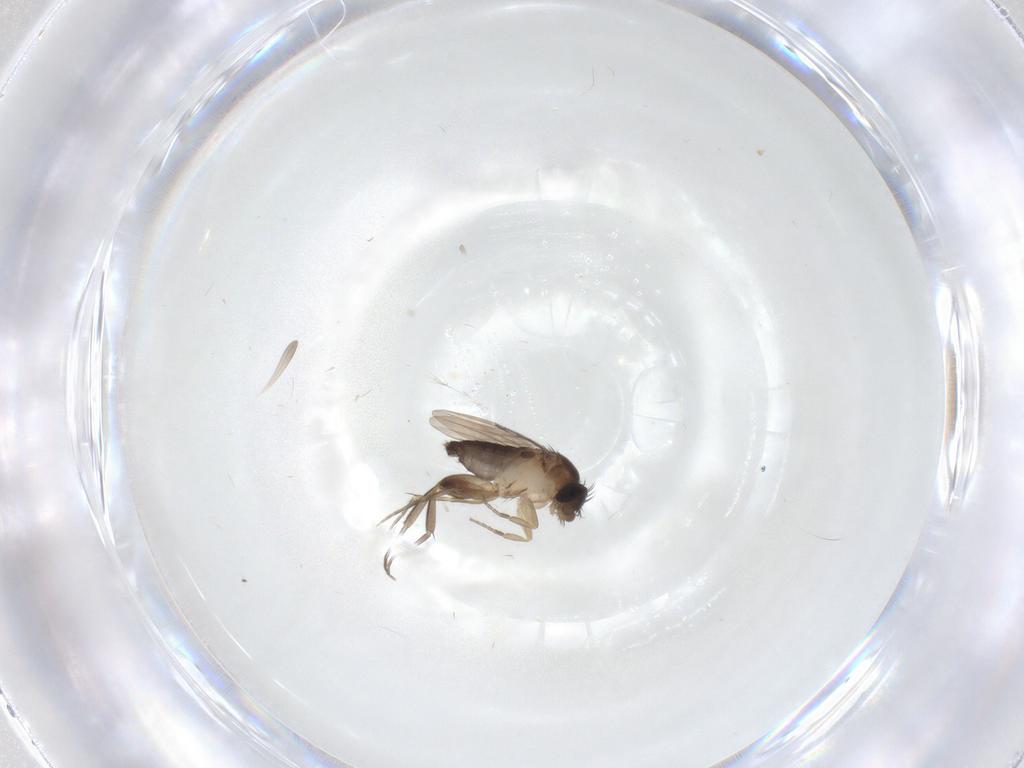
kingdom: Animalia
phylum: Arthropoda
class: Insecta
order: Diptera
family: Phoridae
